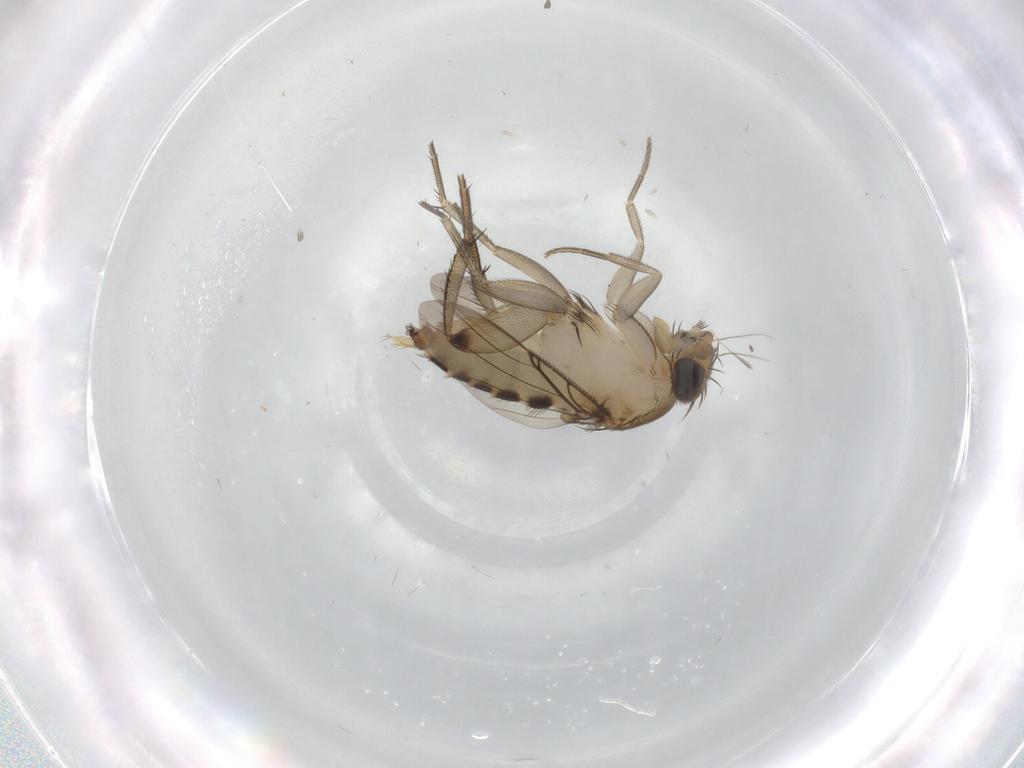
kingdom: Animalia
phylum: Arthropoda
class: Insecta
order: Diptera
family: Phoridae
